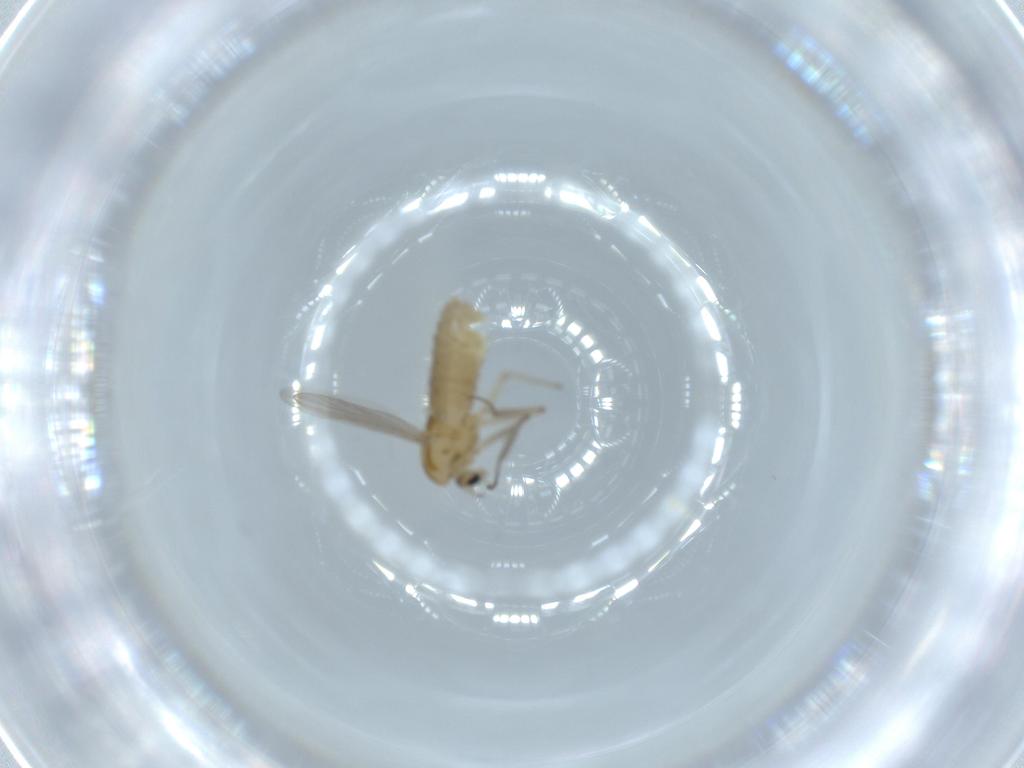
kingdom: Animalia
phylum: Arthropoda
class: Insecta
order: Diptera
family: Chironomidae
